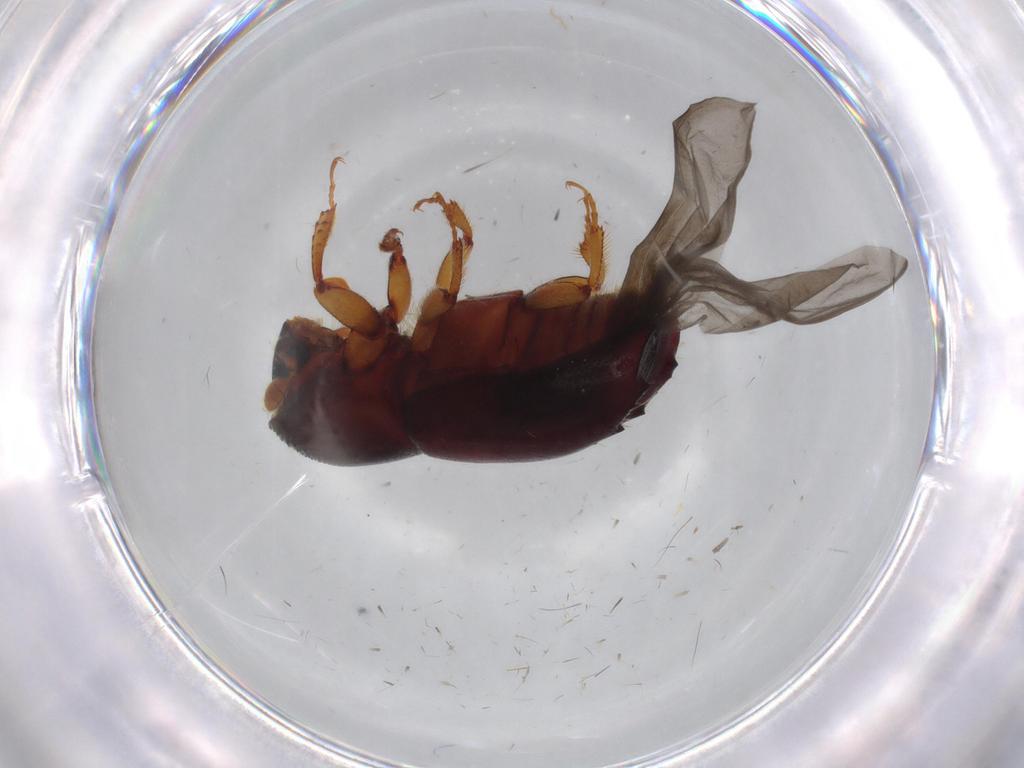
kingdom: Animalia
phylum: Arthropoda
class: Insecta
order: Coleoptera
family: Curculionidae
